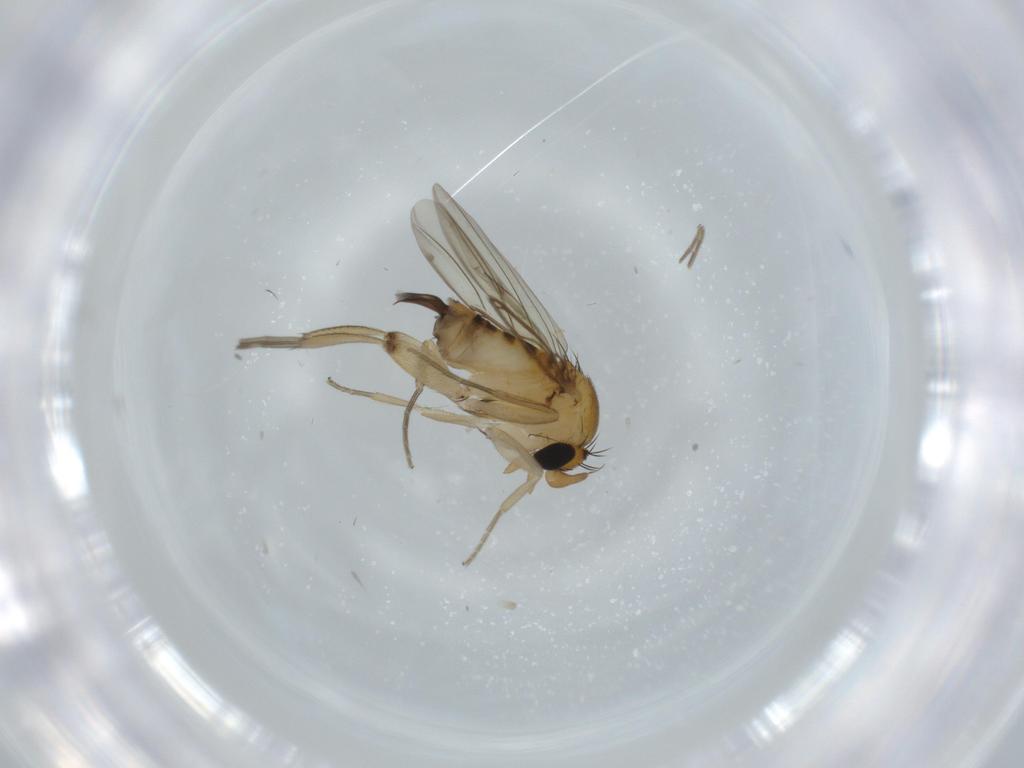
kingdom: Animalia
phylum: Arthropoda
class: Insecta
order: Diptera
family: Phoridae
